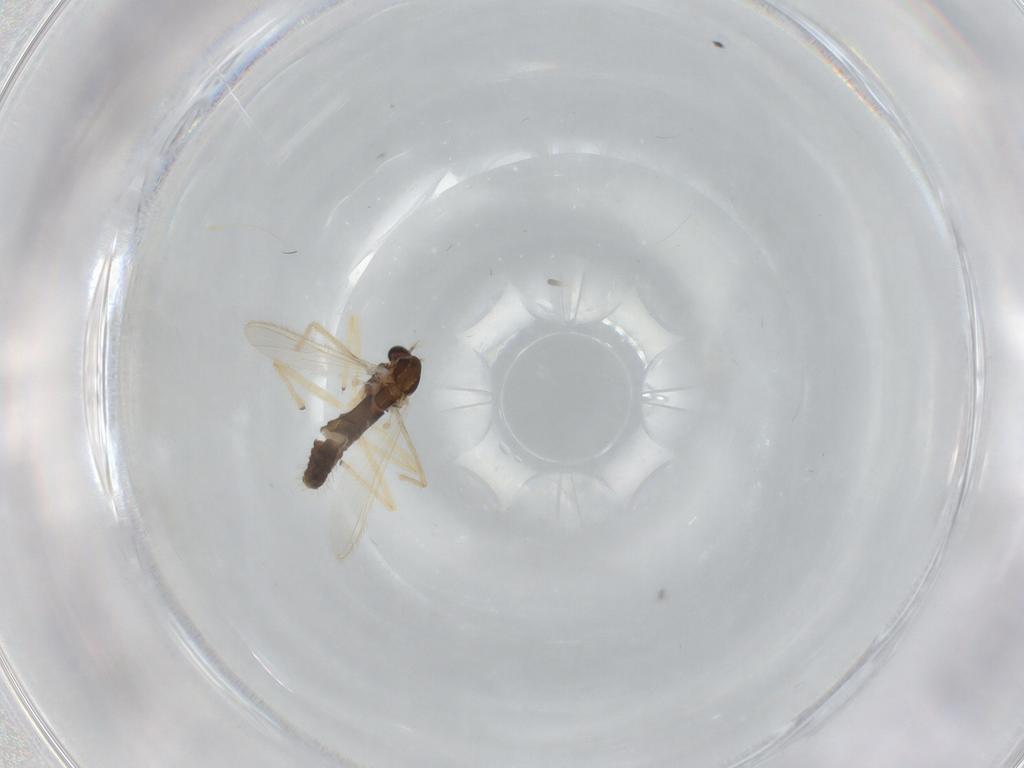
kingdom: Animalia
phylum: Arthropoda
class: Insecta
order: Diptera
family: Chironomidae
